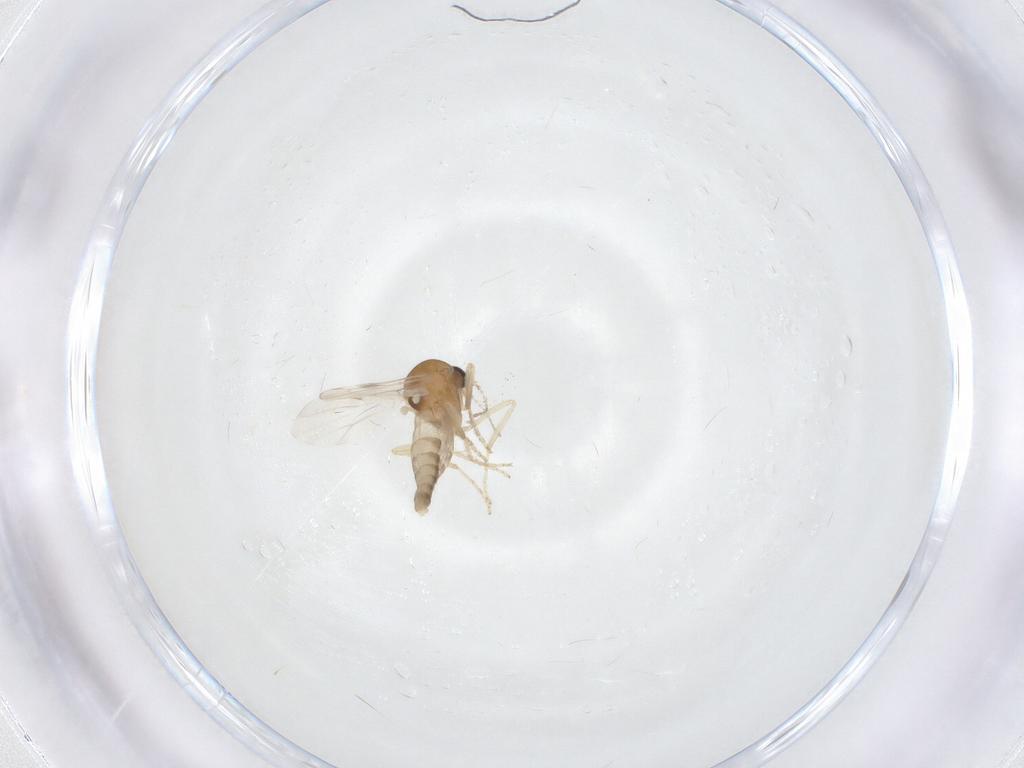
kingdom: Animalia
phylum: Arthropoda
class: Insecta
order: Diptera
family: Ceratopogonidae
